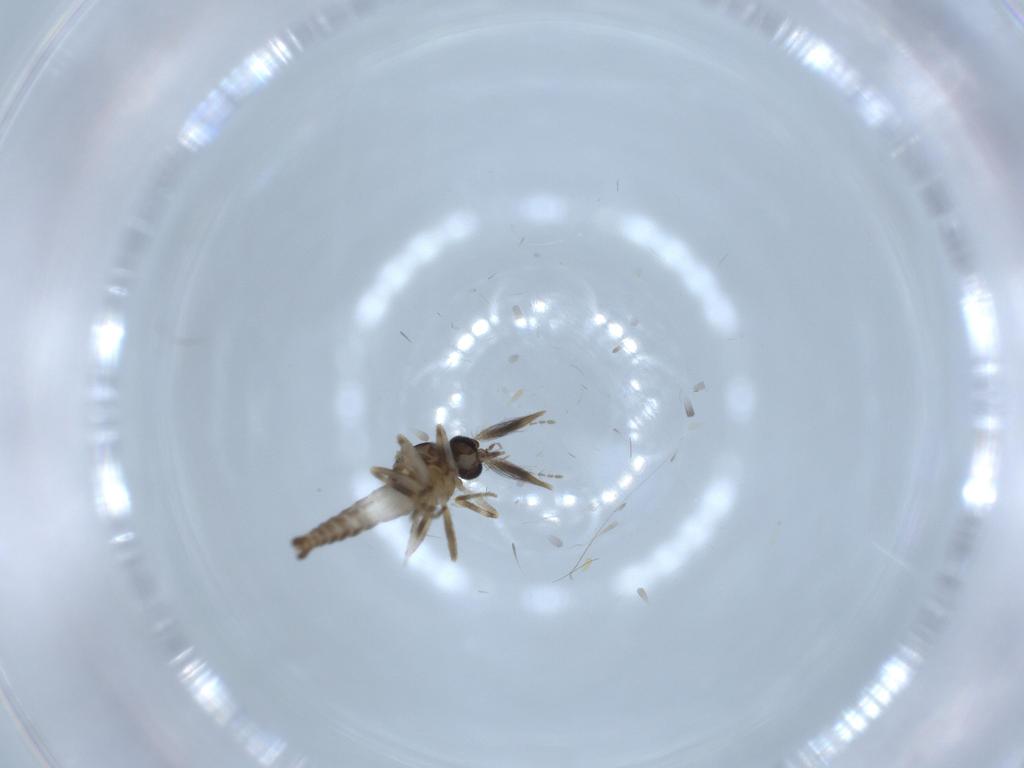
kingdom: Animalia
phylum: Arthropoda
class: Insecta
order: Diptera
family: Ceratopogonidae
